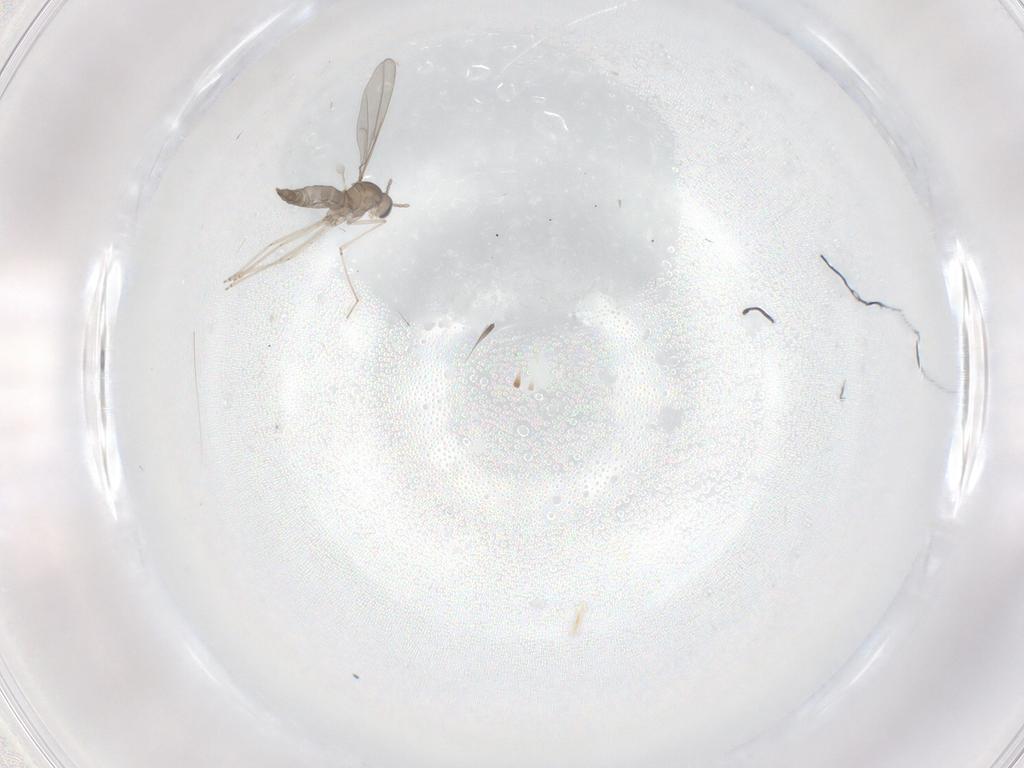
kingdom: Animalia
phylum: Arthropoda
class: Insecta
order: Diptera
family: Cecidomyiidae
